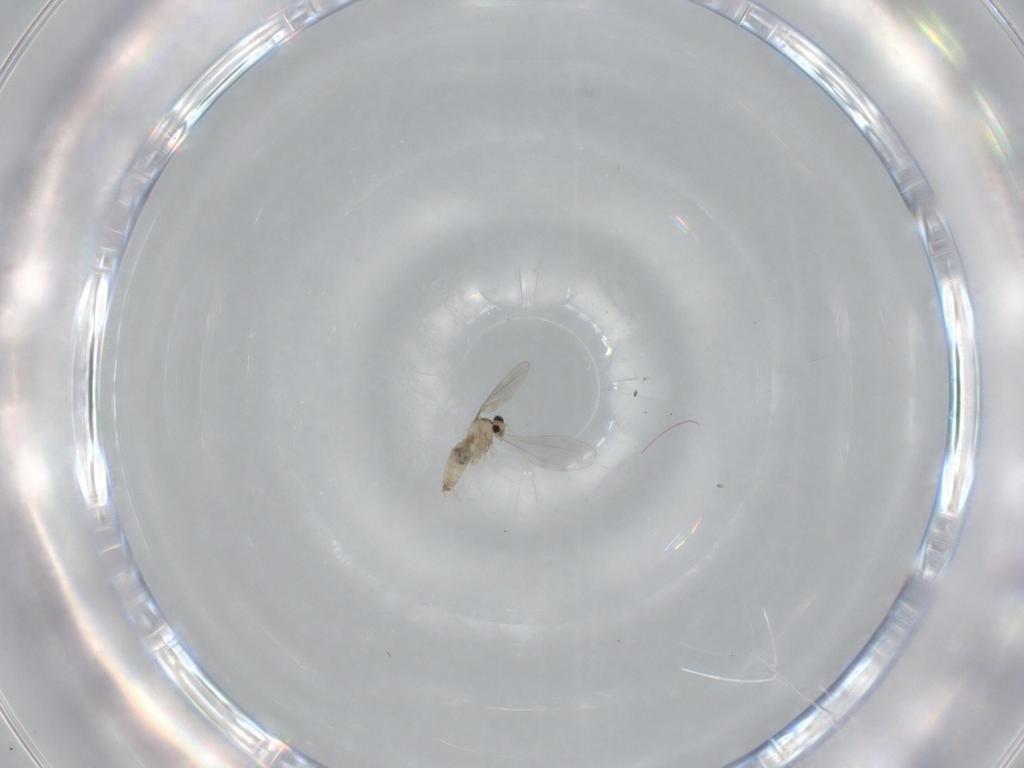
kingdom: Animalia
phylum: Arthropoda
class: Insecta
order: Diptera
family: Cecidomyiidae
